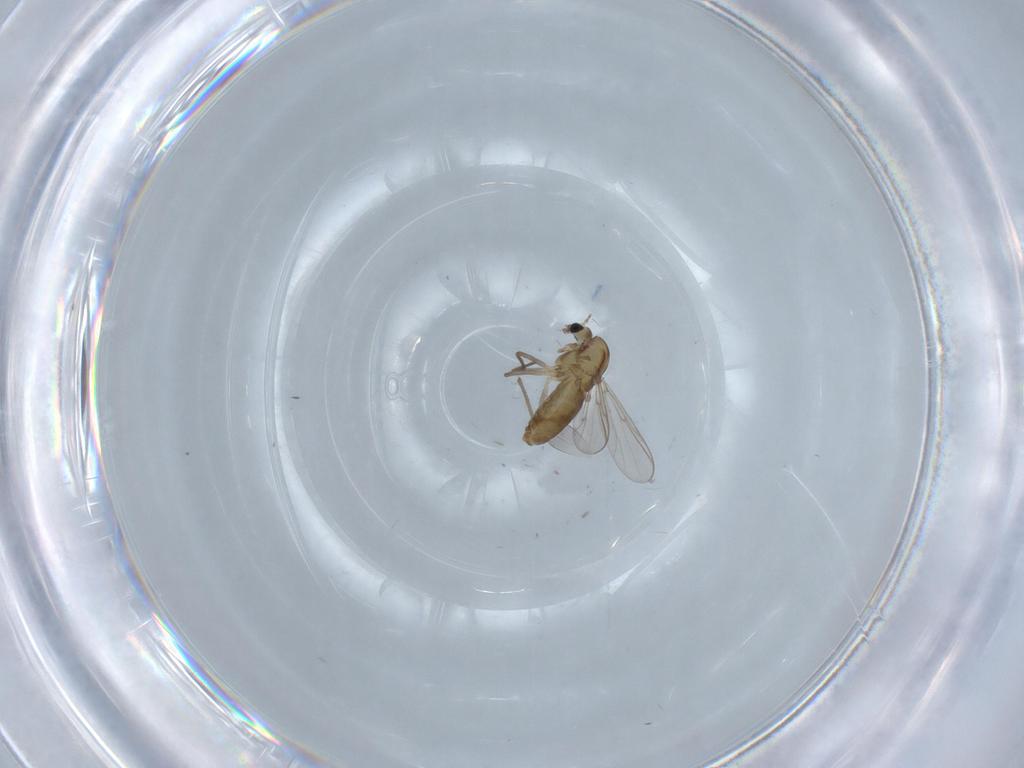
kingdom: Animalia
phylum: Arthropoda
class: Insecta
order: Diptera
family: Chironomidae
